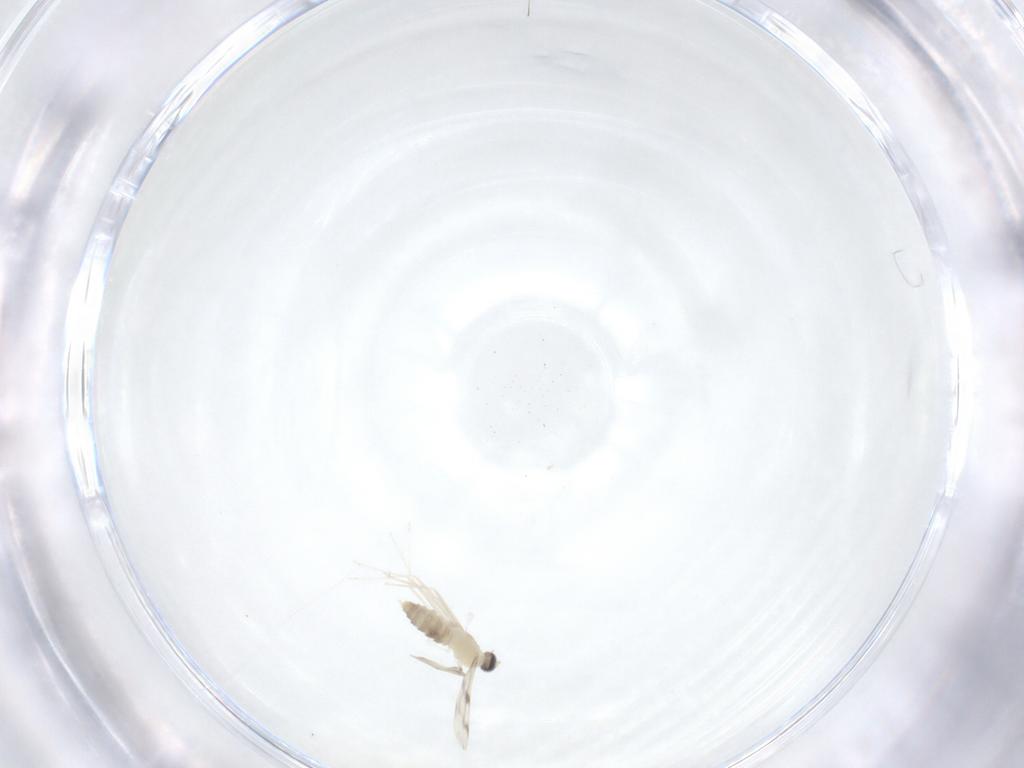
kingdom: Animalia
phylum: Arthropoda
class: Insecta
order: Diptera
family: Cecidomyiidae
